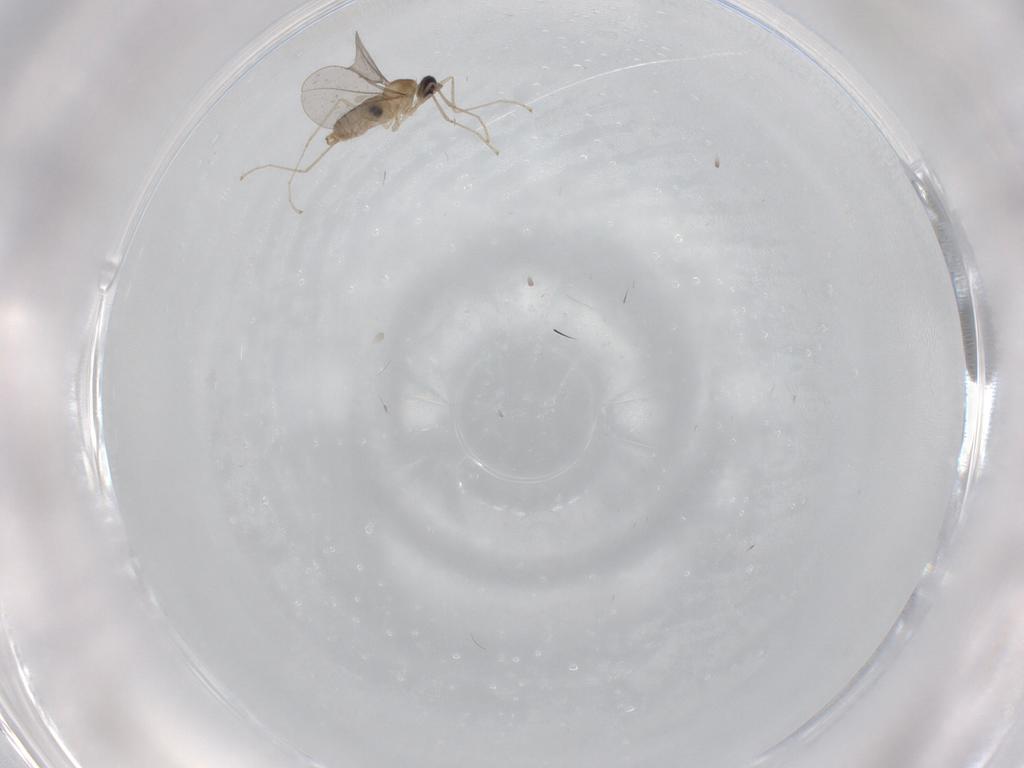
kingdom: Animalia
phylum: Arthropoda
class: Insecta
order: Diptera
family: Cecidomyiidae
